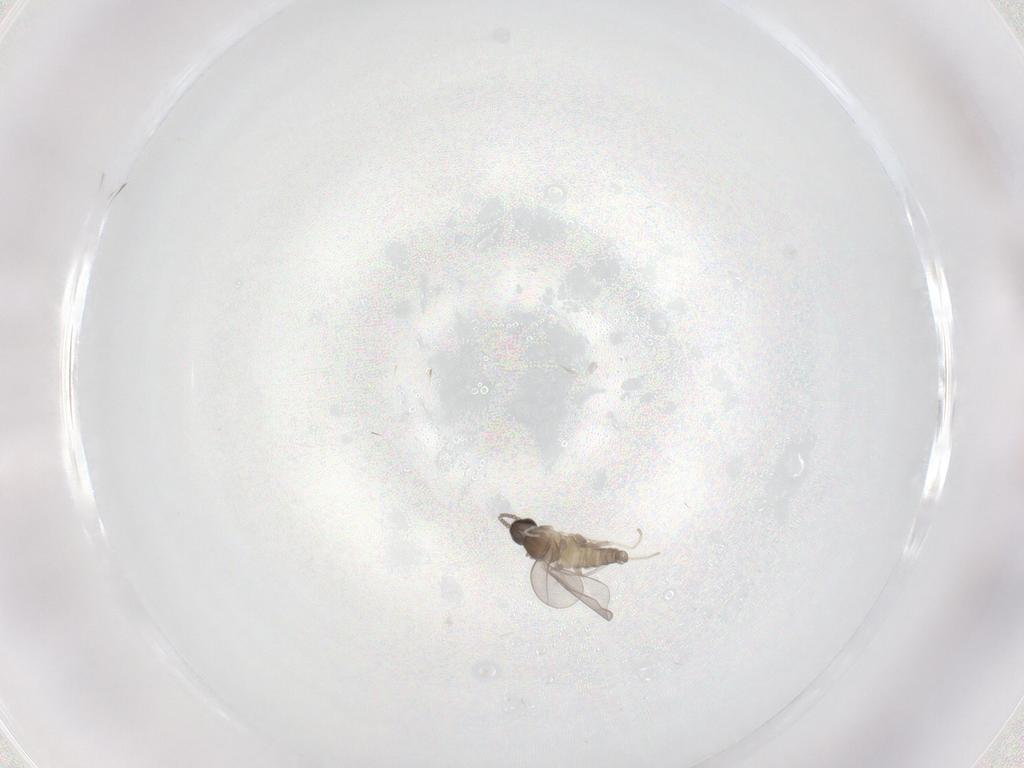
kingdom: Animalia
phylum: Arthropoda
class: Insecta
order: Diptera
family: Cecidomyiidae
